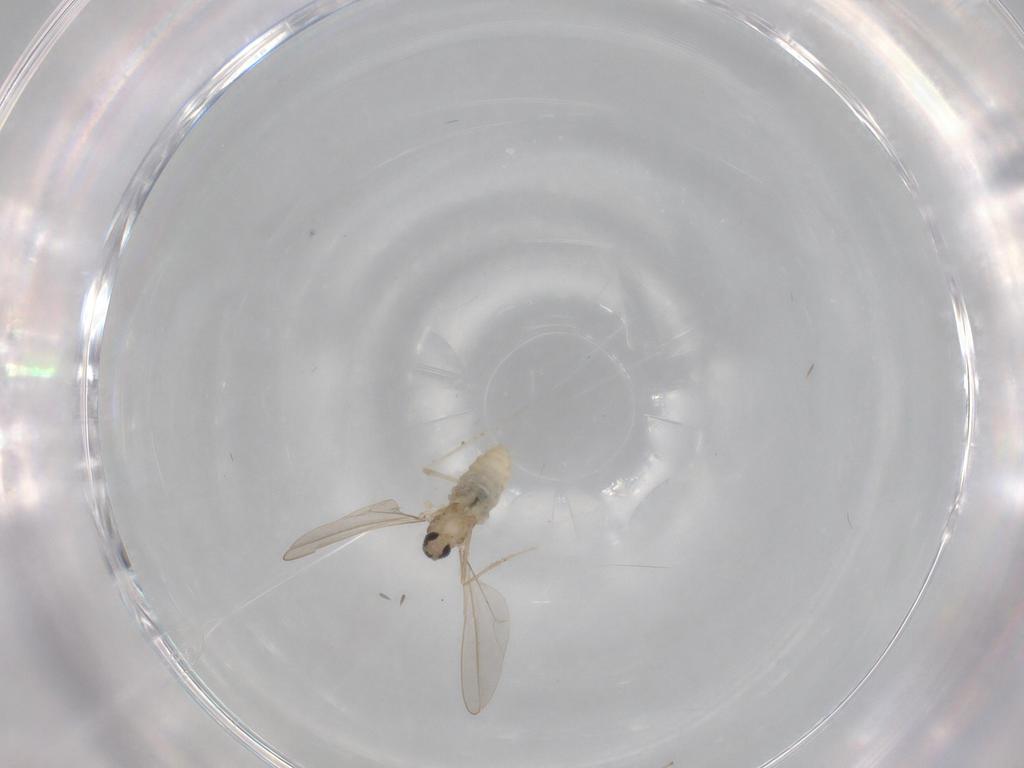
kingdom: Animalia
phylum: Arthropoda
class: Insecta
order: Diptera
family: Cecidomyiidae
